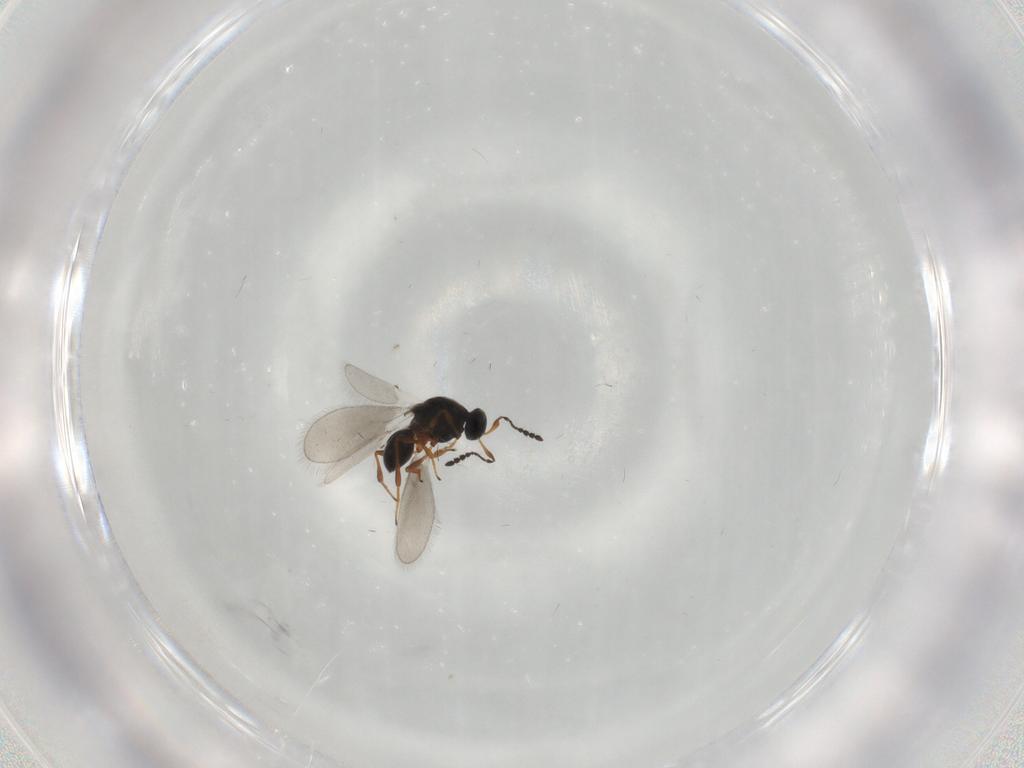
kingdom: Animalia
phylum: Arthropoda
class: Insecta
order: Hymenoptera
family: Platygastridae
